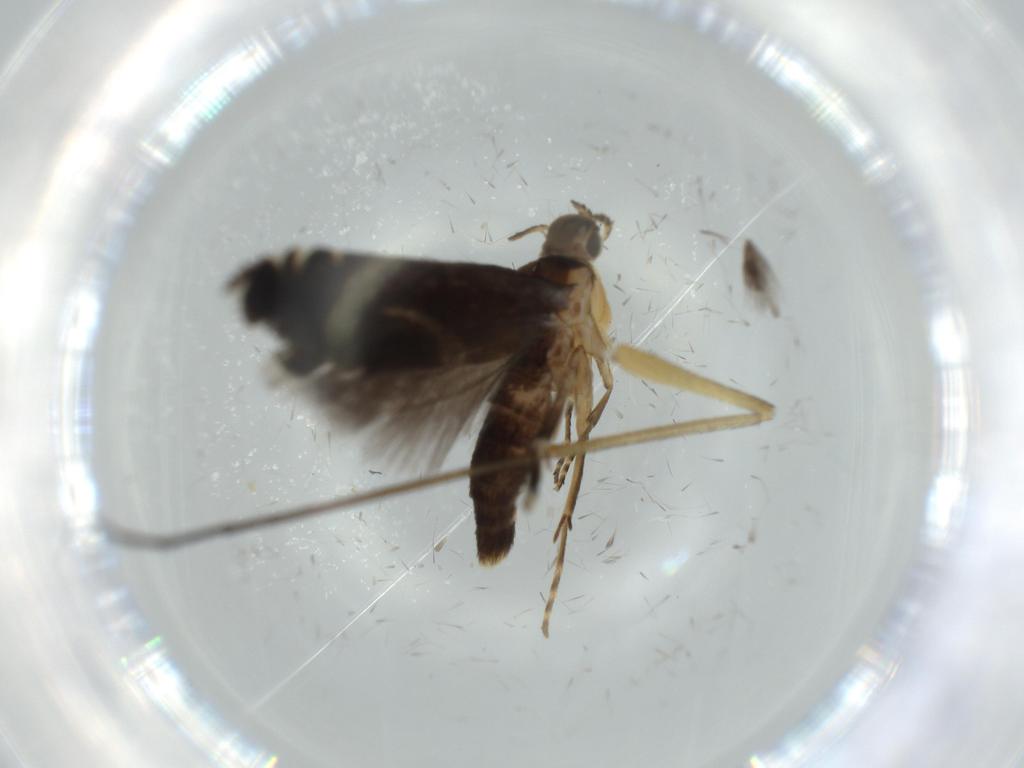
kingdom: Animalia
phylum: Arthropoda
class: Insecta
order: Lepidoptera
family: Glyphipterigidae
